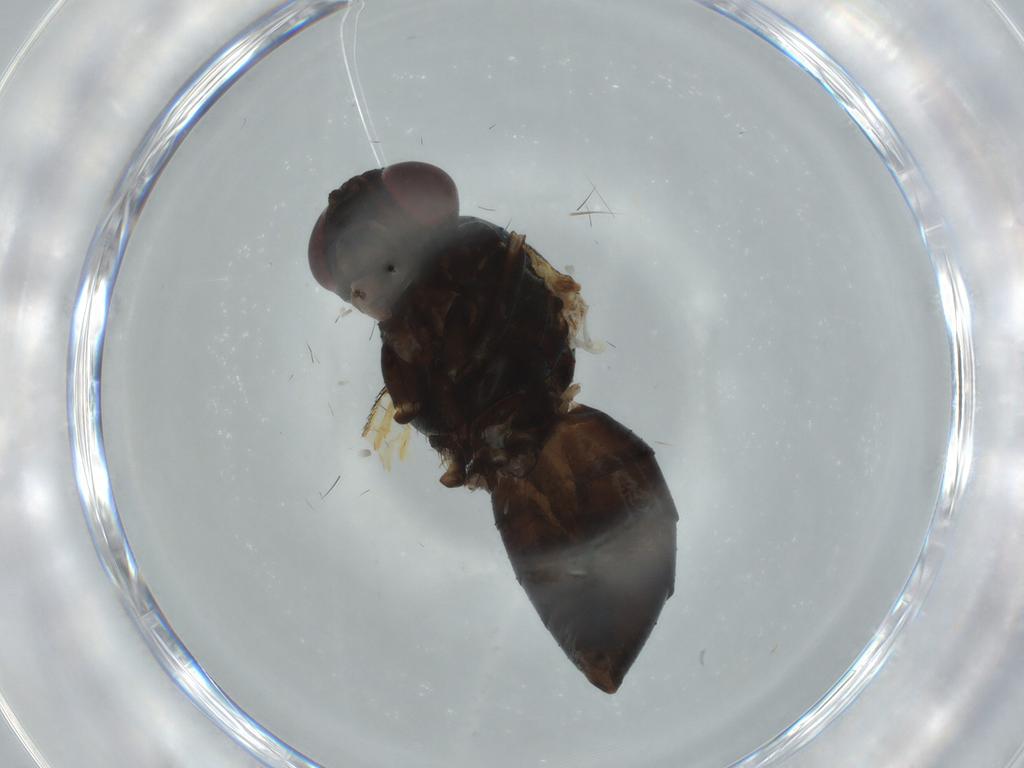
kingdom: Animalia
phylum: Arthropoda
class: Insecta
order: Diptera
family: Muscidae
